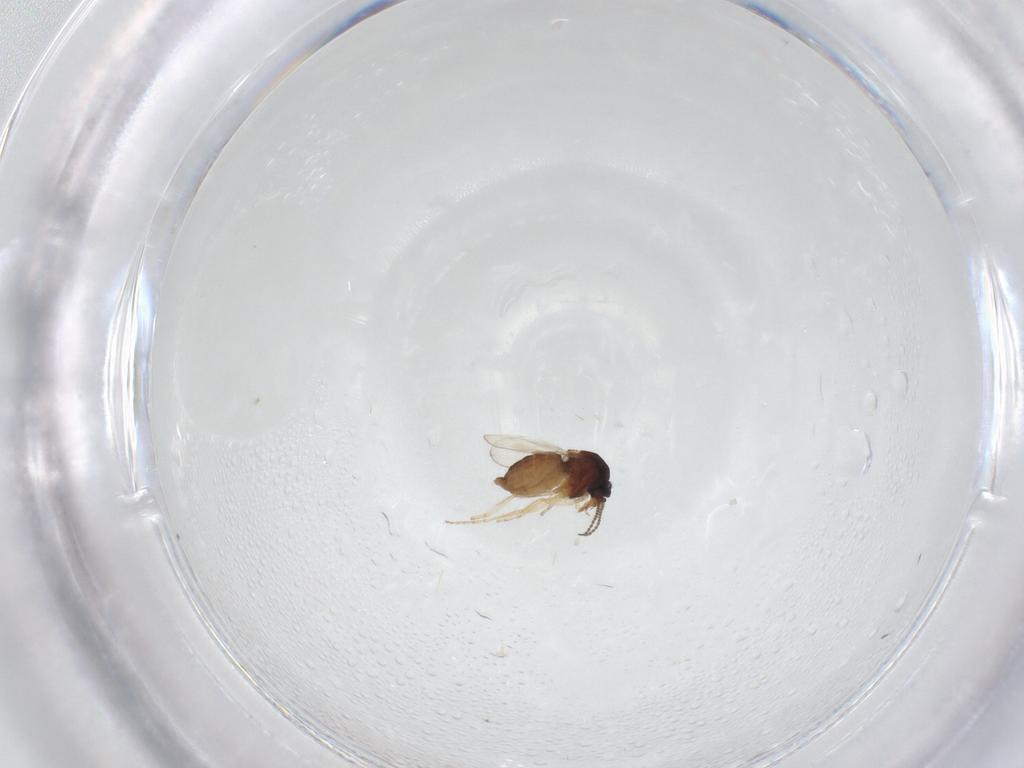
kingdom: Animalia
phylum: Arthropoda
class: Insecta
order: Diptera
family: Ceratopogonidae
